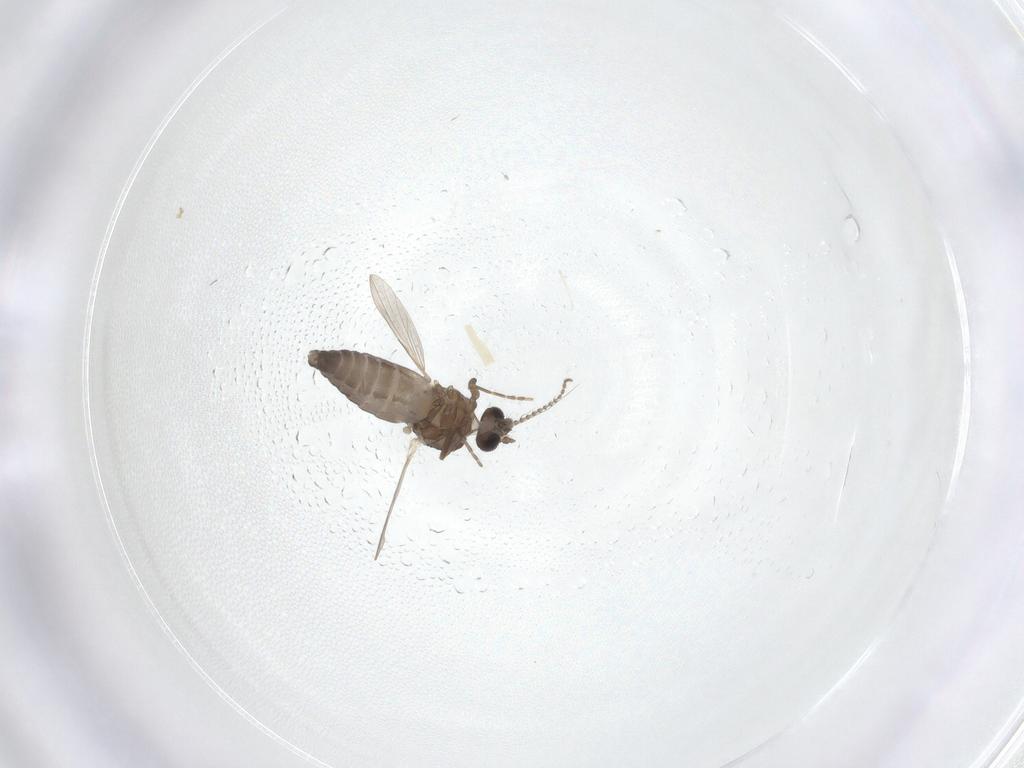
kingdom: Animalia
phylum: Arthropoda
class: Insecta
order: Diptera
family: Ceratopogonidae
